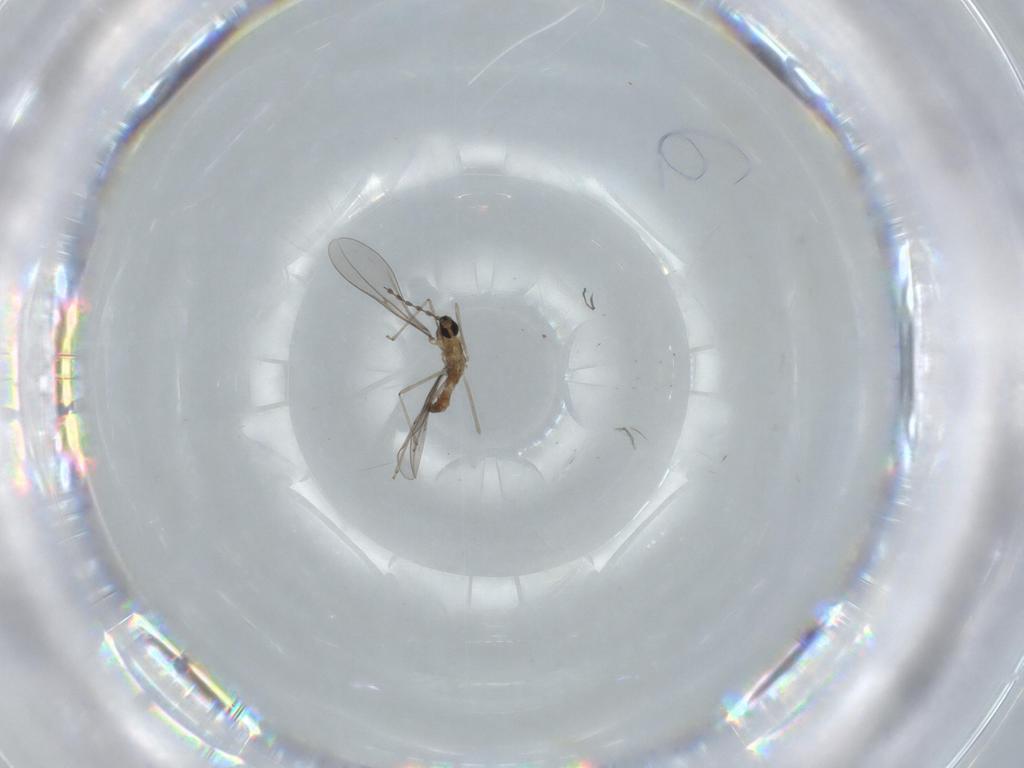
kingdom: Animalia
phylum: Arthropoda
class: Insecta
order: Diptera
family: Cecidomyiidae
